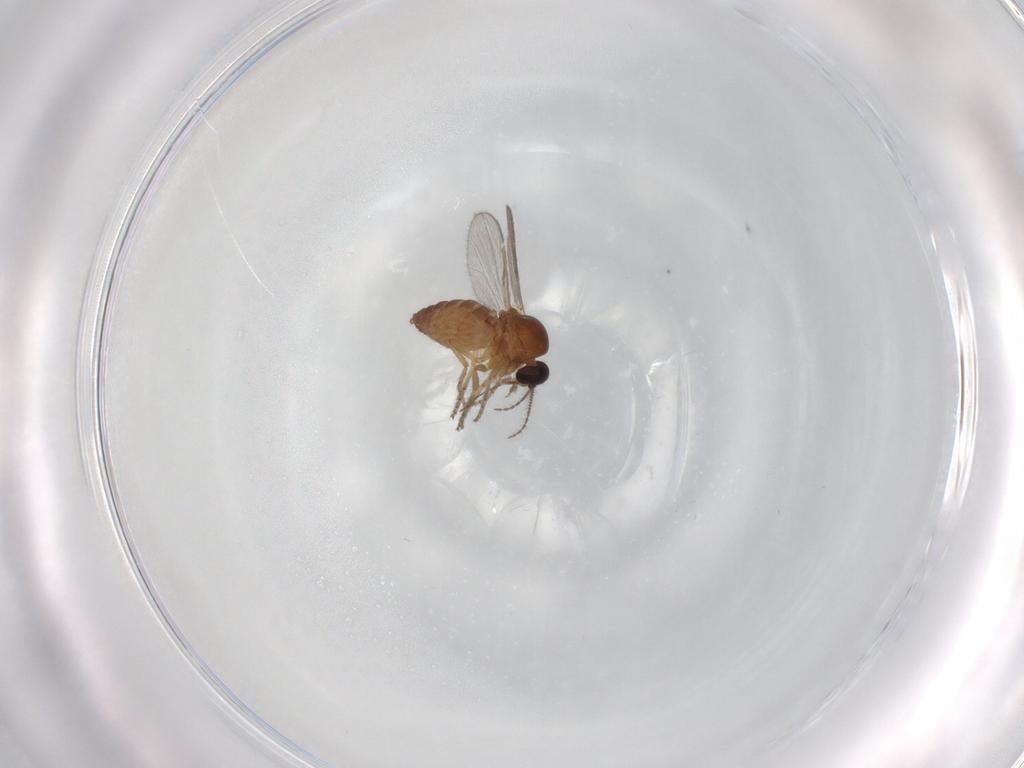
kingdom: Animalia
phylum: Arthropoda
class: Insecta
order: Diptera
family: Ceratopogonidae
